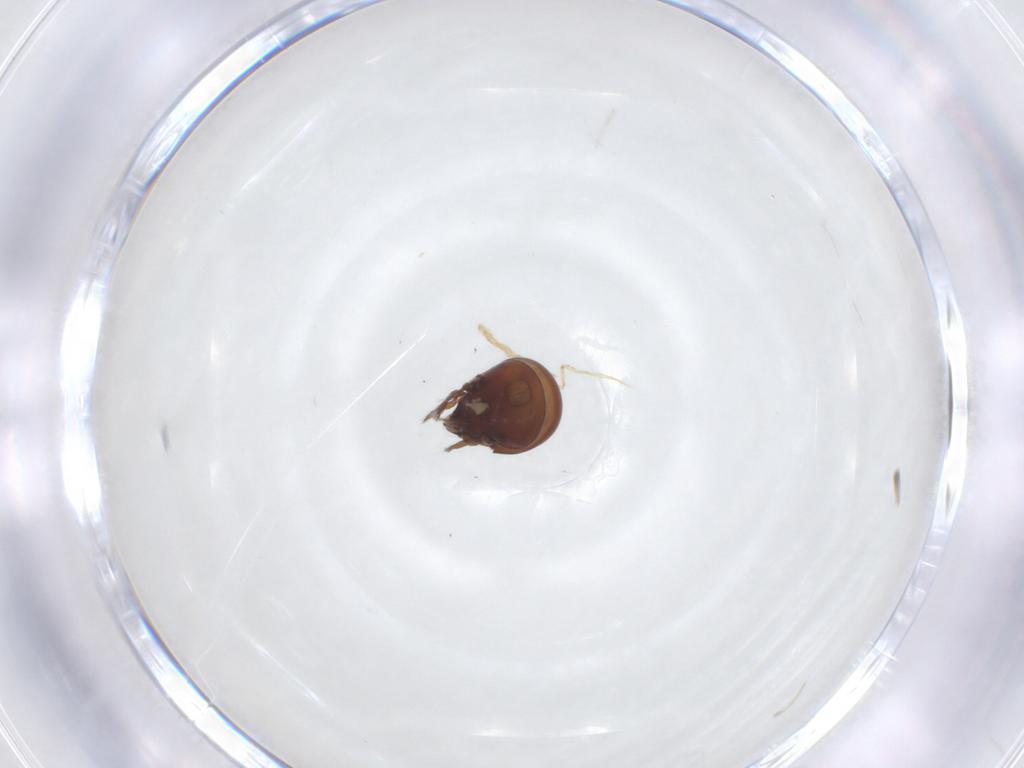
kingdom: Animalia
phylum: Arthropoda
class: Arachnida
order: Sarcoptiformes
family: Mochlozetidae
